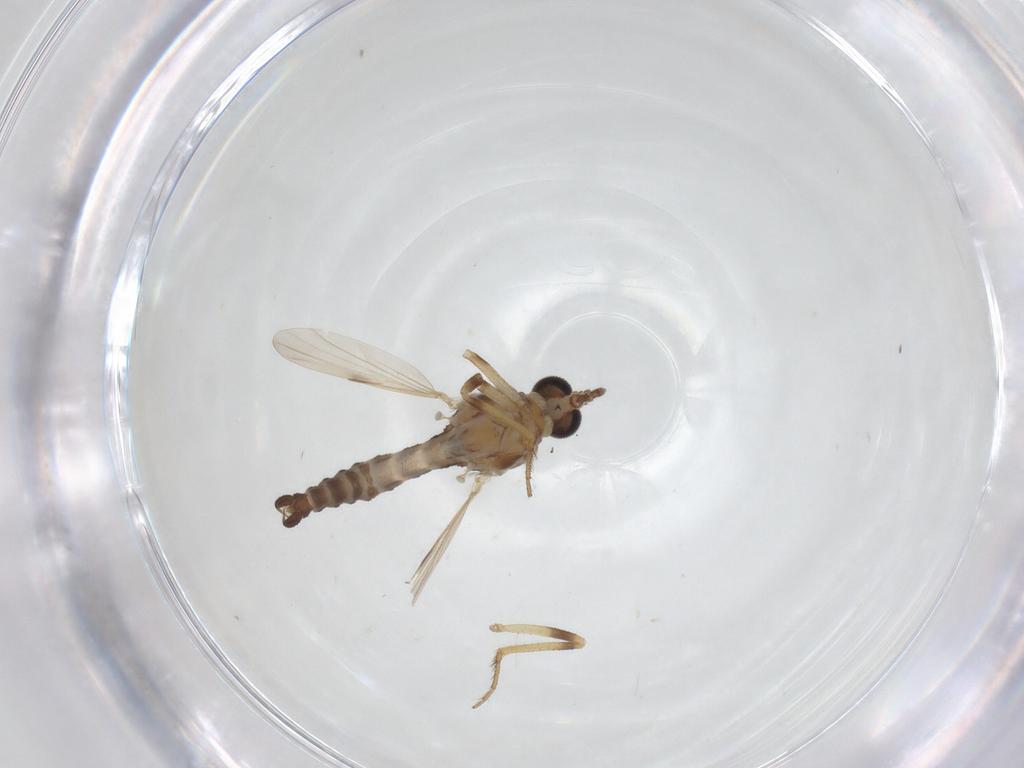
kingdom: Animalia
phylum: Arthropoda
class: Insecta
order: Diptera
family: Ceratopogonidae
